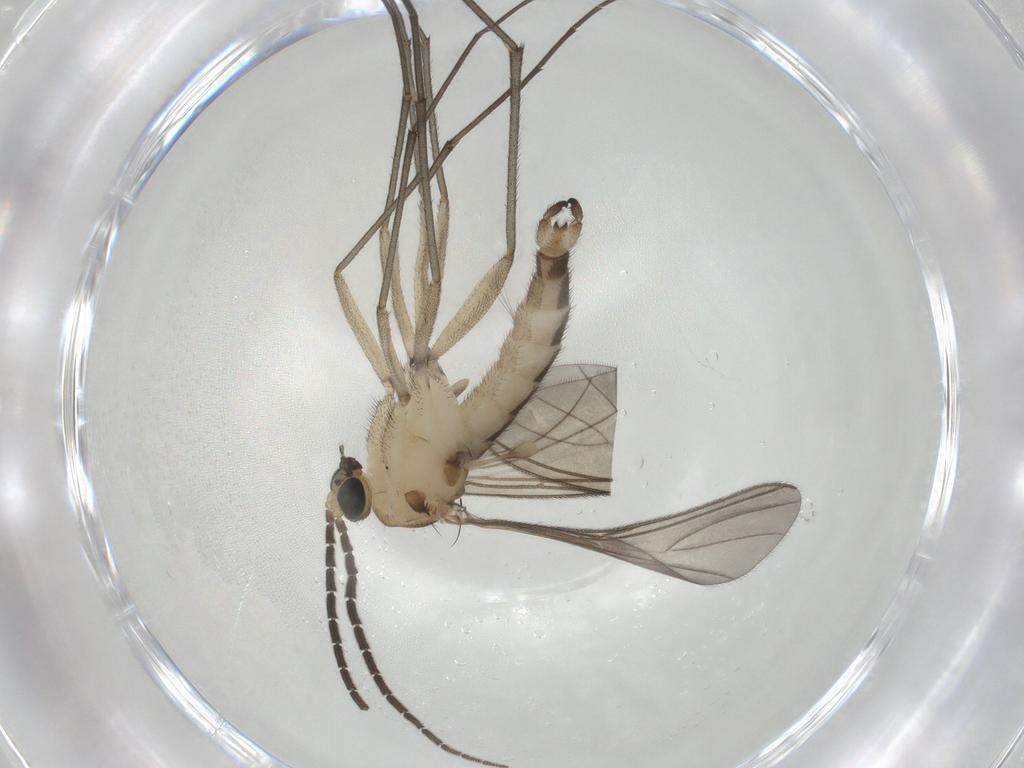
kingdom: Animalia
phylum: Arthropoda
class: Insecta
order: Diptera
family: Sciaridae
